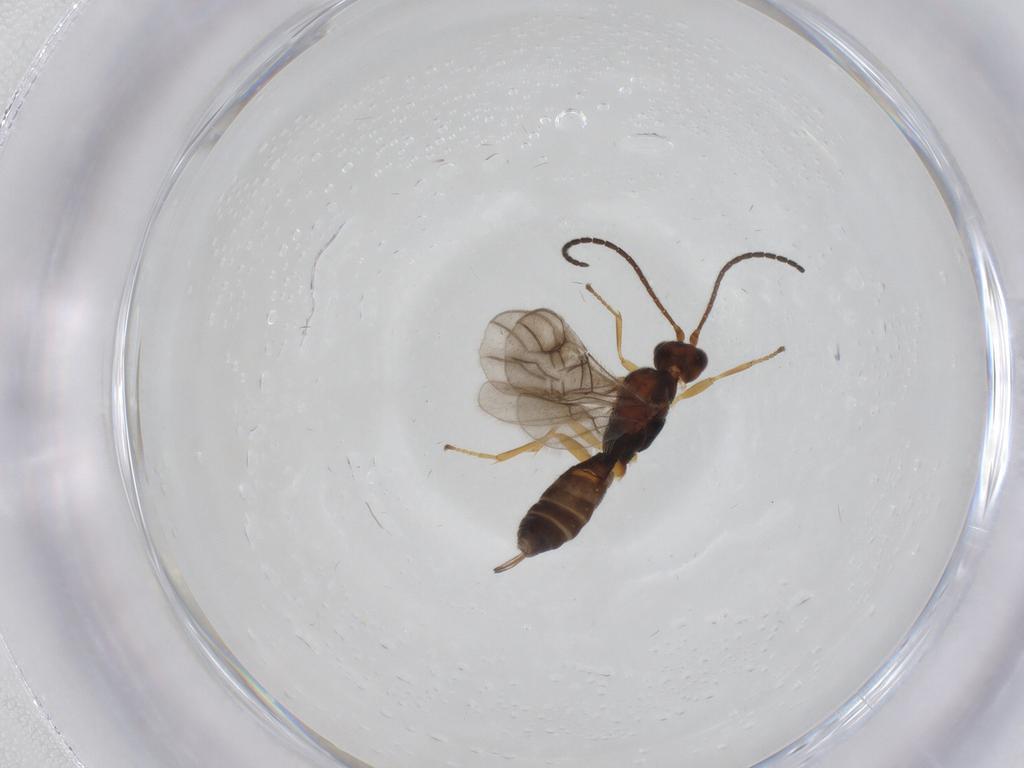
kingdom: Animalia
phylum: Arthropoda
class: Insecta
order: Hymenoptera
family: Braconidae
